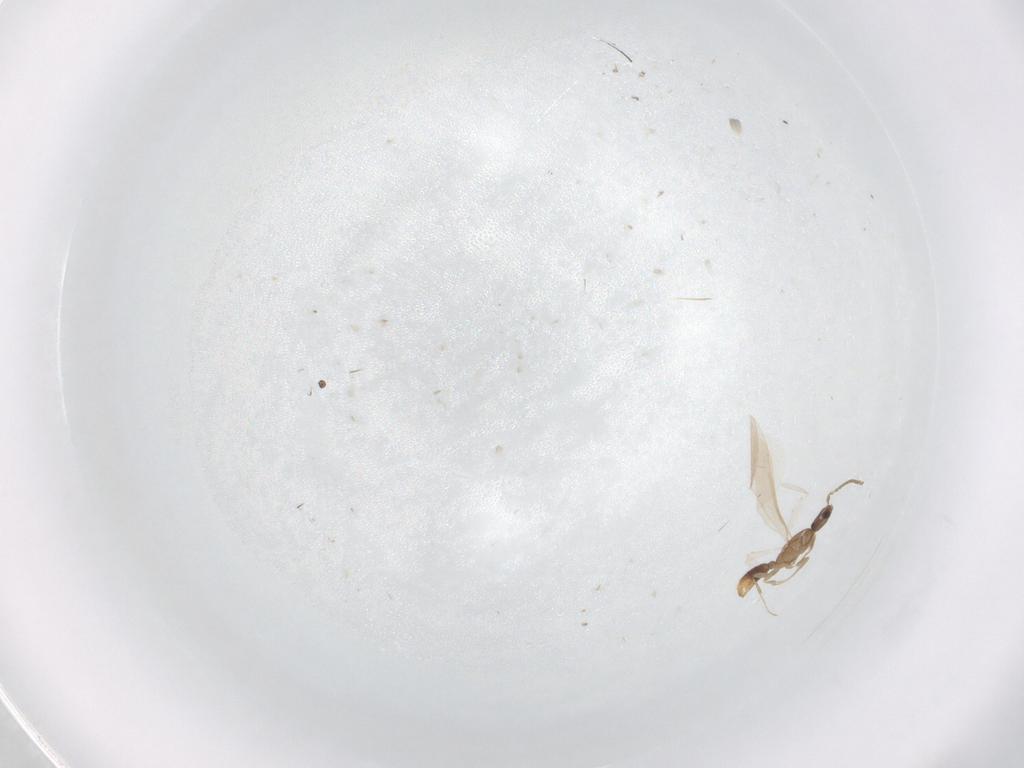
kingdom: Animalia
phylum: Arthropoda
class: Insecta
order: Hymenoptera
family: Formicidae
